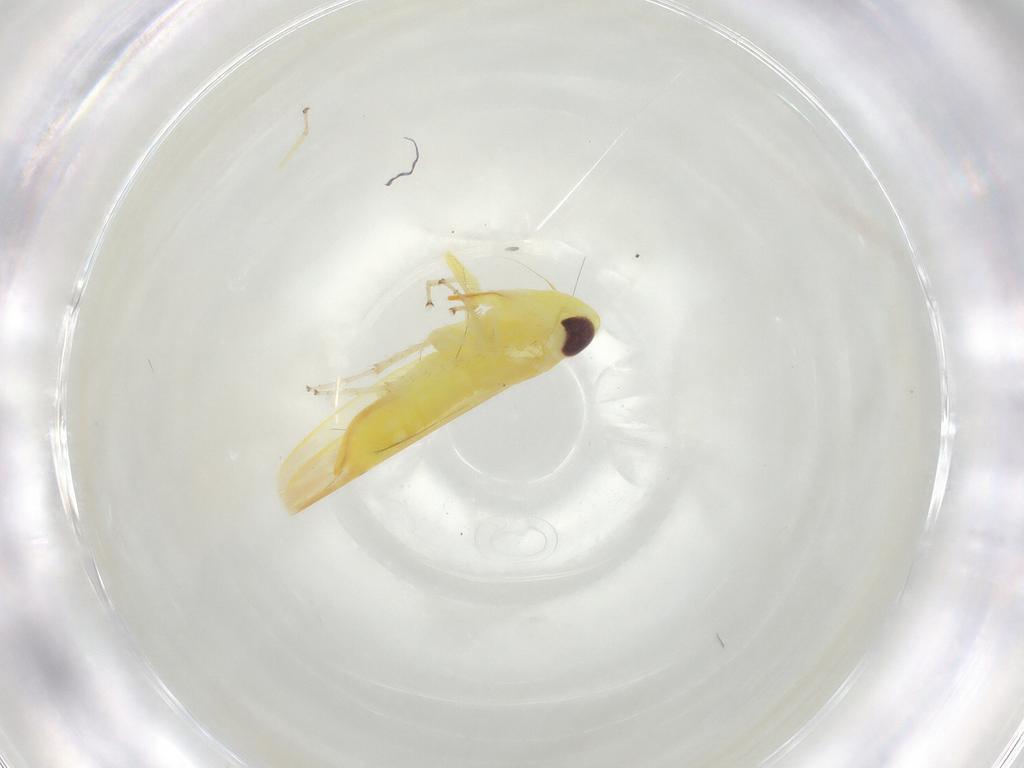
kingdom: Animalia
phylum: Arthropoda
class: Insecta
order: Hemiptera
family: Cicadellidae
